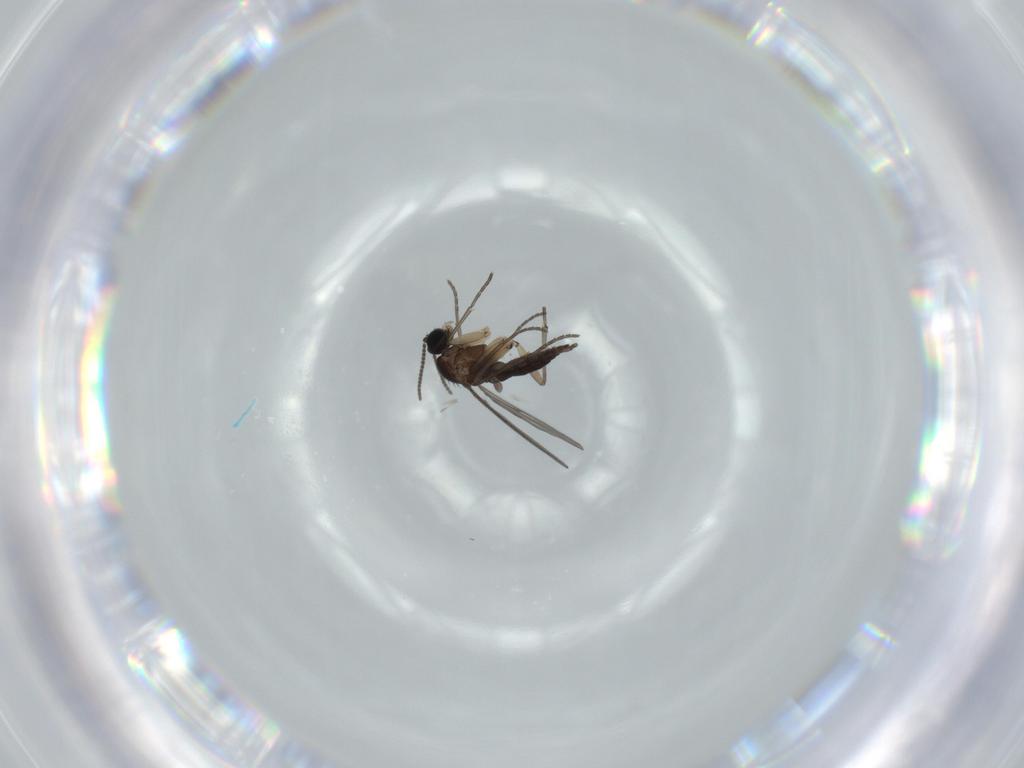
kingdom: Animalia
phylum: Arthropoda
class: Insecta
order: Diptera
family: Sciaridae
